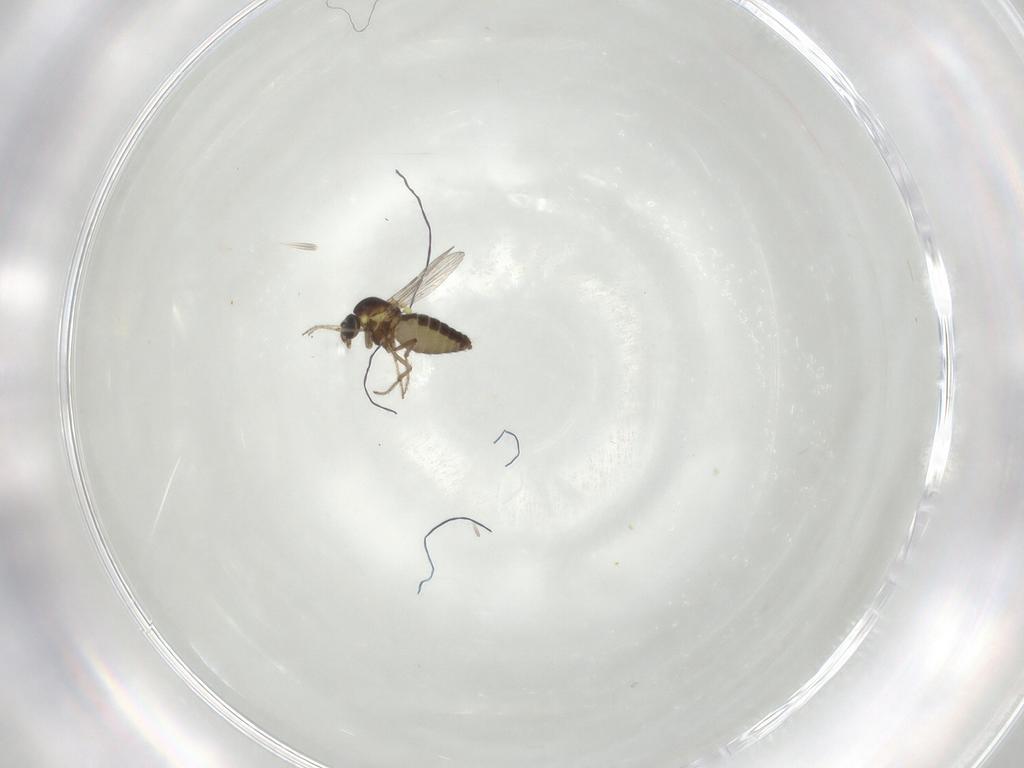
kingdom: Animalia
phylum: Arthropoda
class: Insecta
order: Diptera
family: Ceratopogonidae
